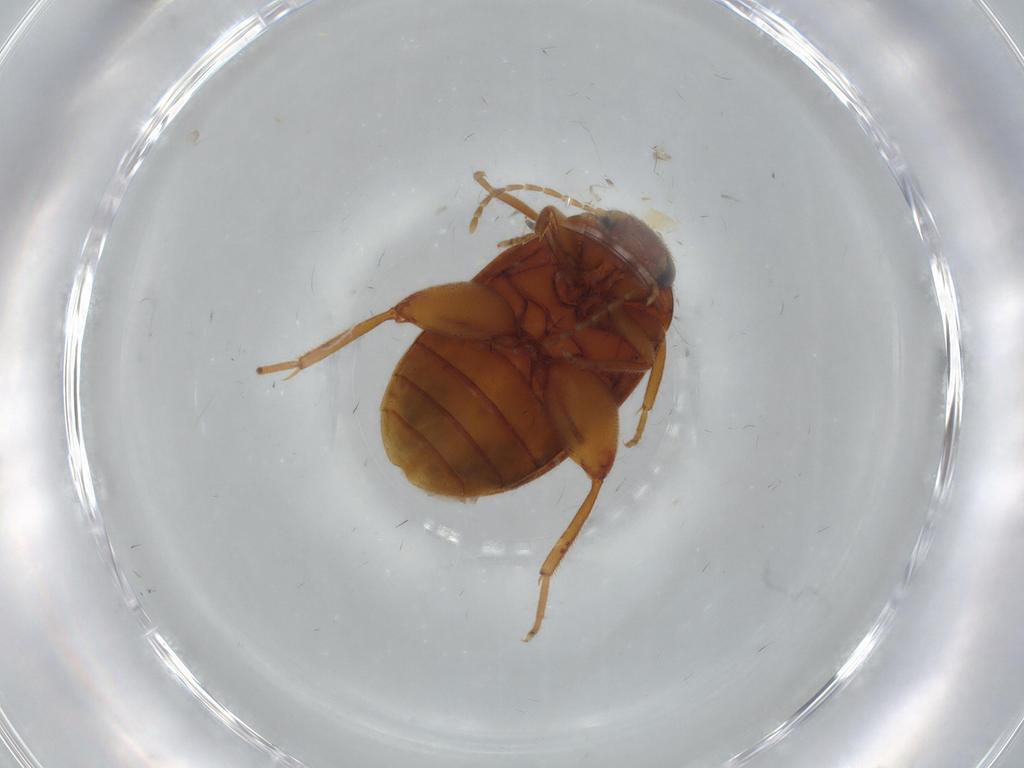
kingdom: Animalia
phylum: Arthropoda
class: Insecta
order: Coleoptera
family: Scirtidae
